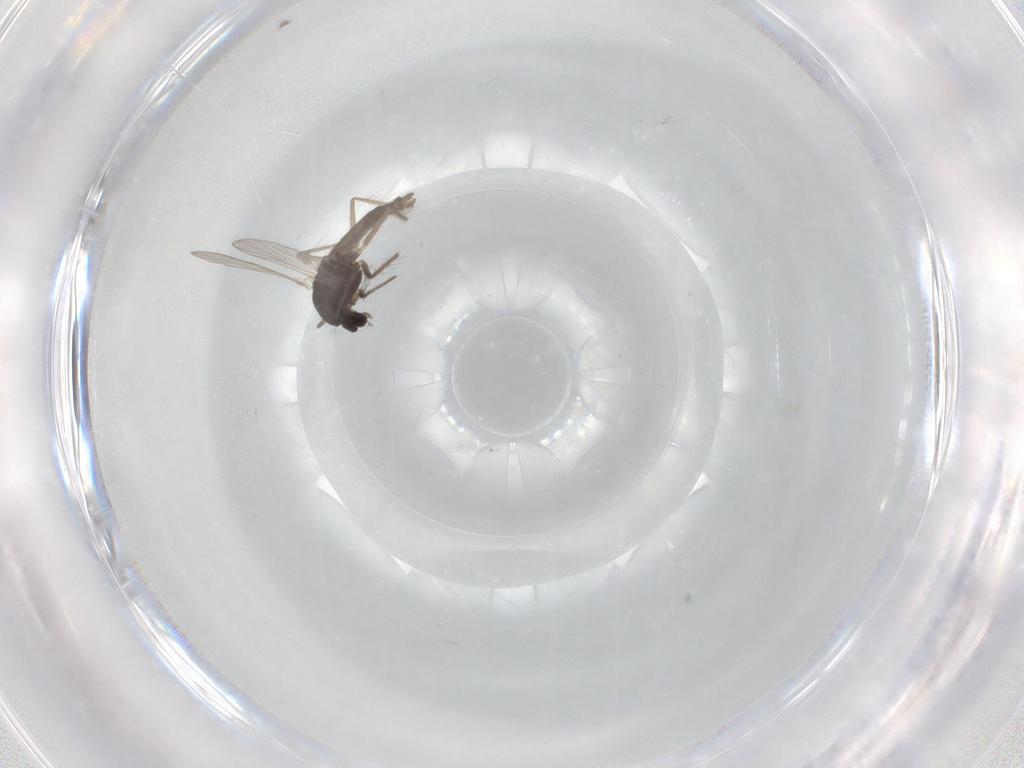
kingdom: Animalia
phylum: Arthropoda
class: Insecta
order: Diptera
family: Chironomidae
